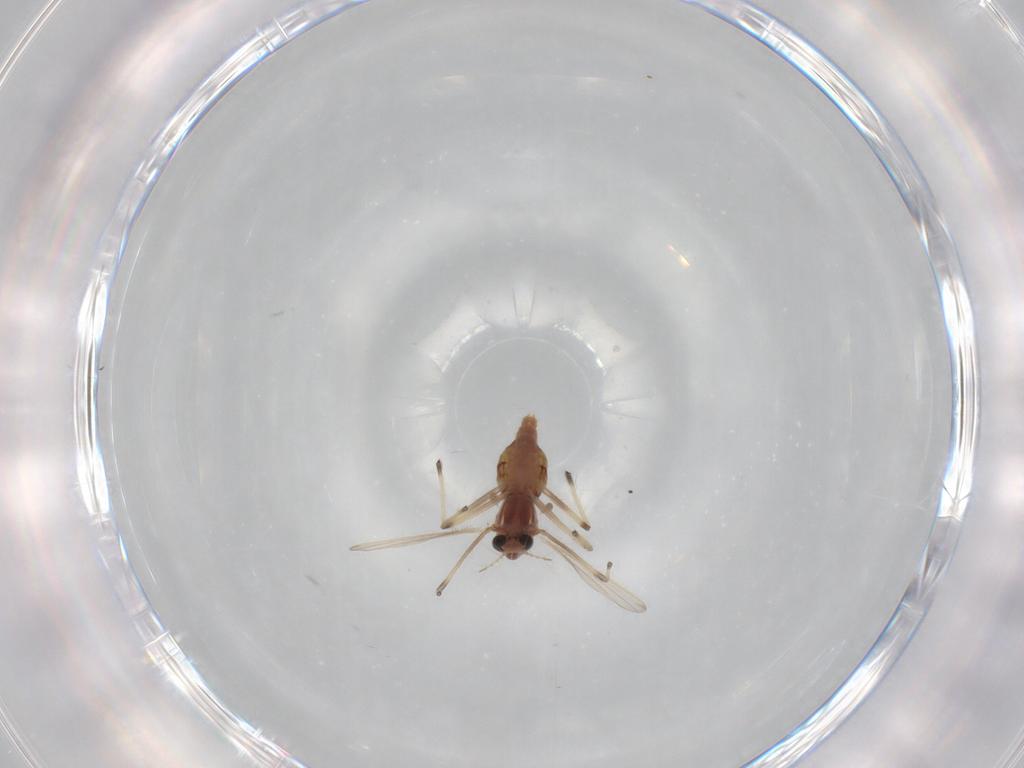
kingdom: Animalia
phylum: Arthropoda
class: Insecta
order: Diptera
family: Chironomidae
